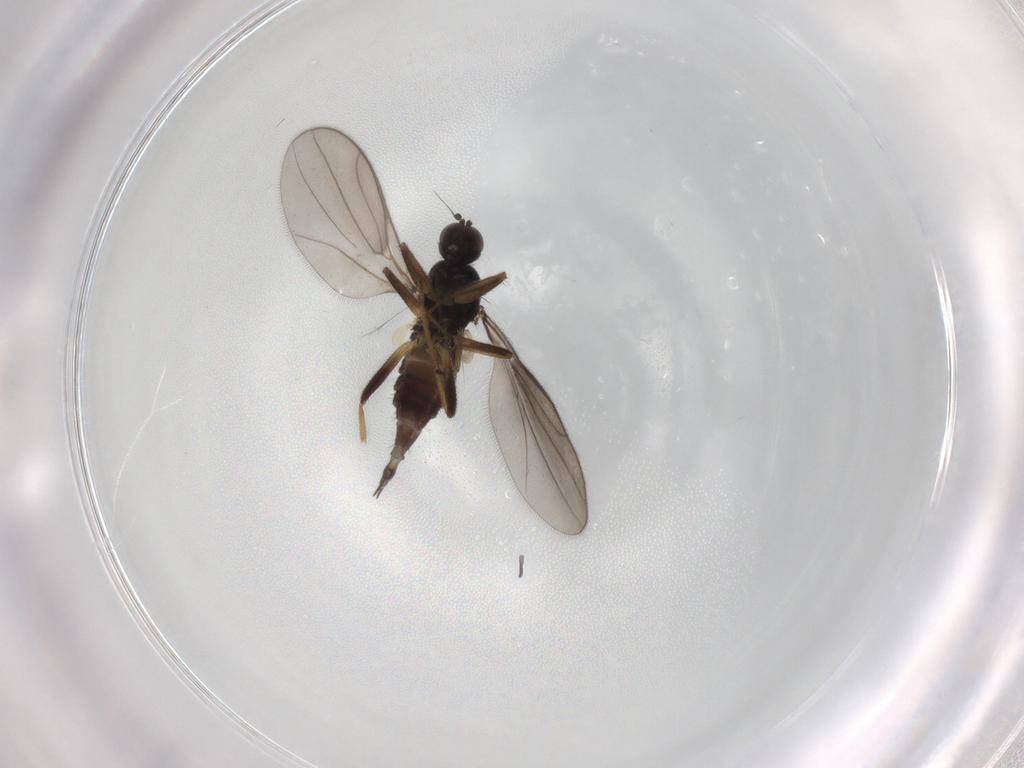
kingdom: Animalia
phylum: Arthropoda
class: Insecta
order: Diptera
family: Hybotidae
